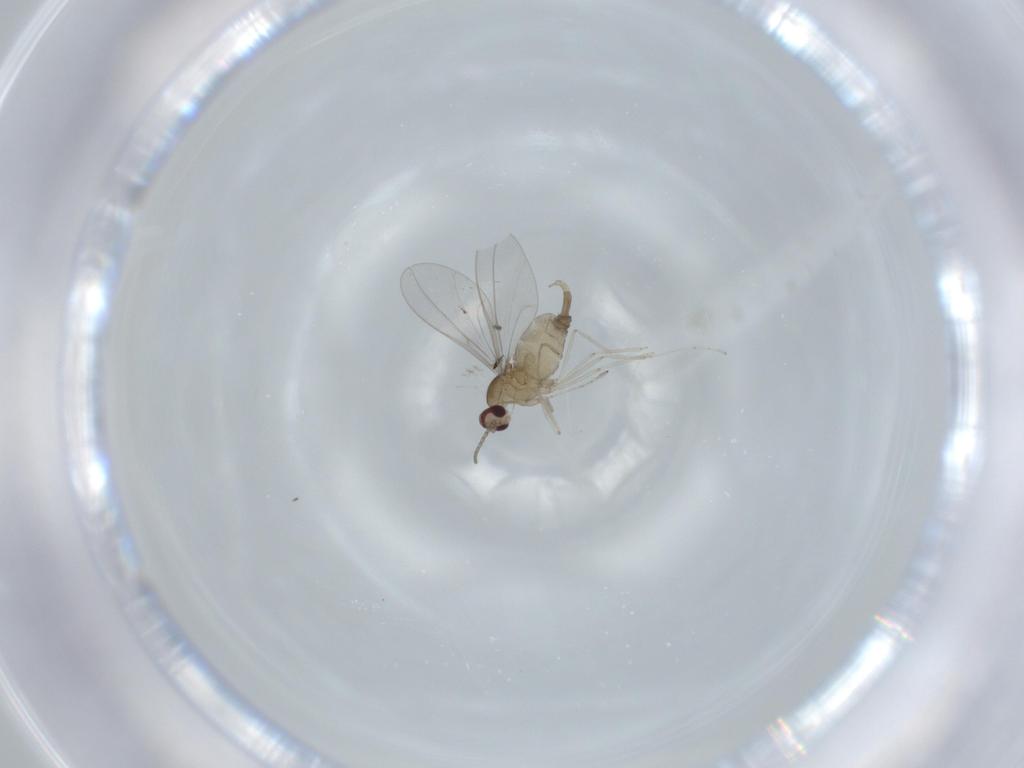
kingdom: Animalia
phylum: Arthropoda
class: Insecta
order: Diptera
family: Cecidomyiidae
